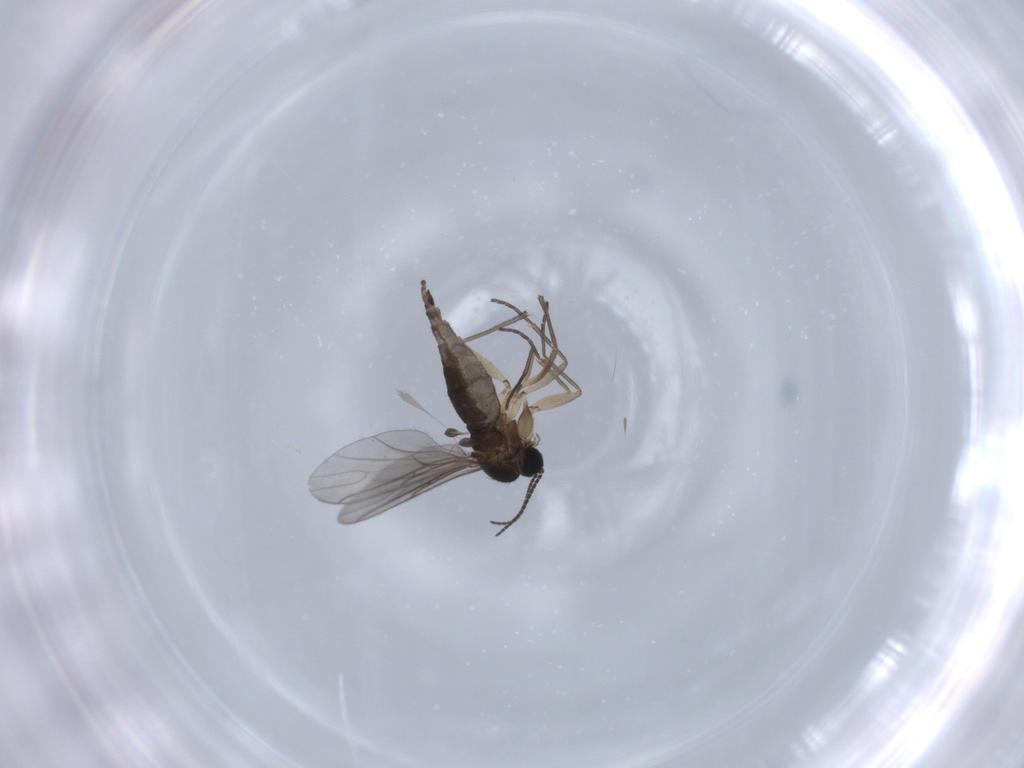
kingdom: Animalia
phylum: Arthropoda
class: Insecta
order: Diptera
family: Sciaridae
